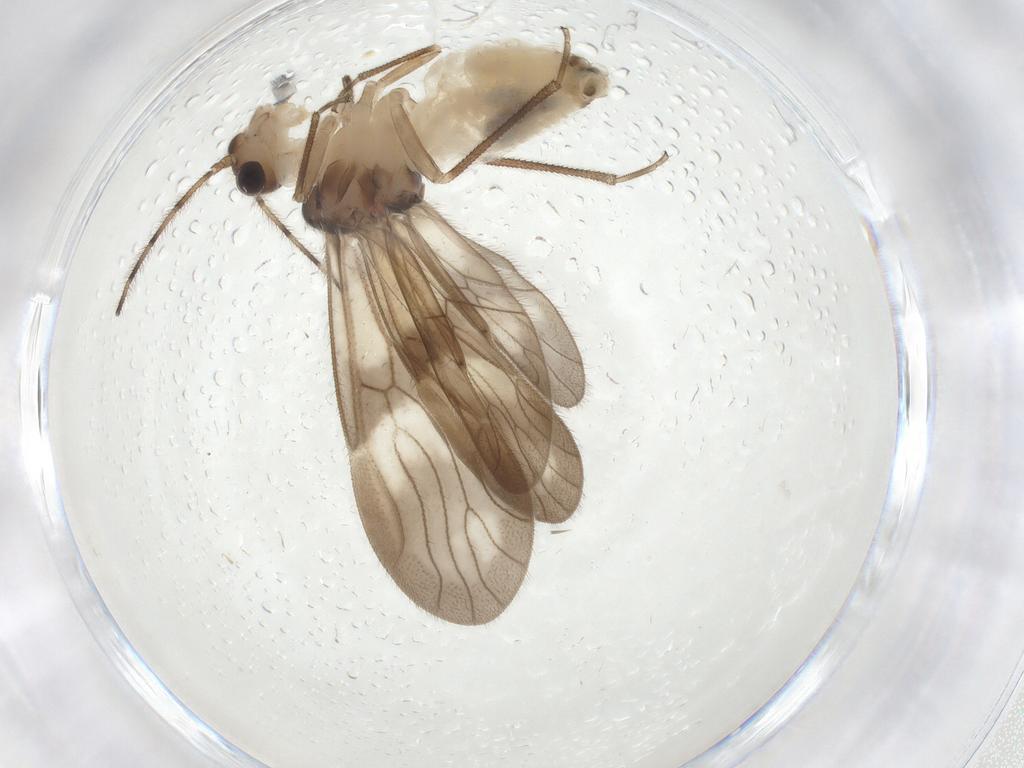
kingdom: Animalia
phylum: Arthropoda
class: Insecta
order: Psocodea
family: Amphipsocidae
